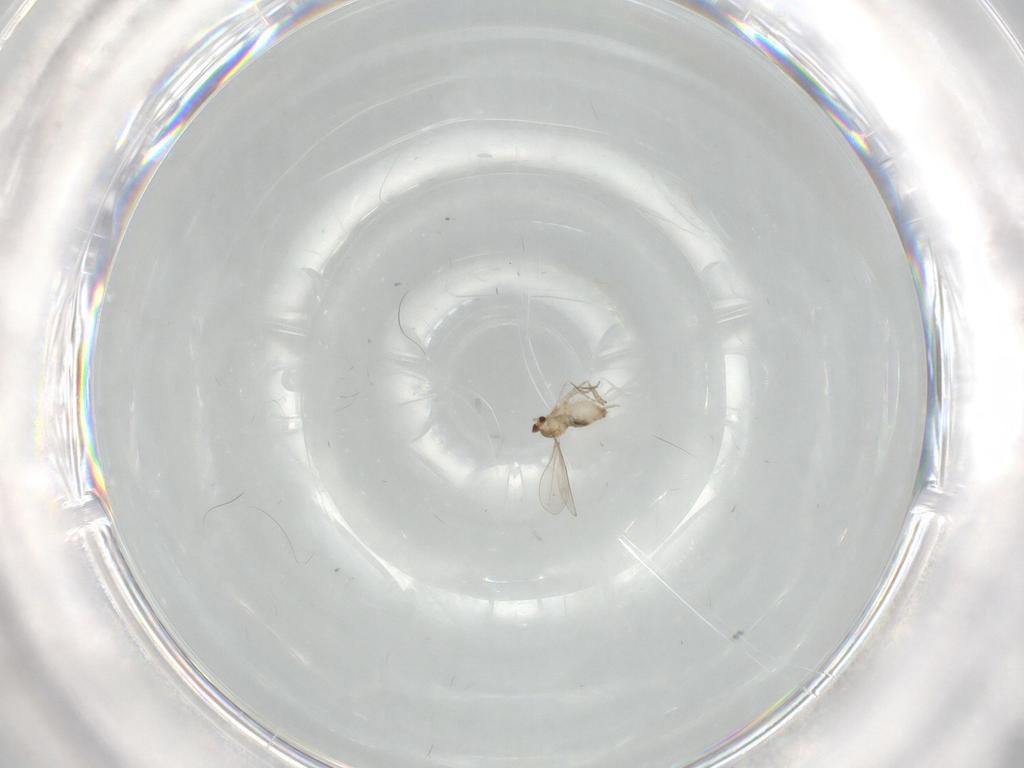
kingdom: Animalia
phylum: Arthropoda
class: Insecta
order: Diptera
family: Cecidomyiidae
